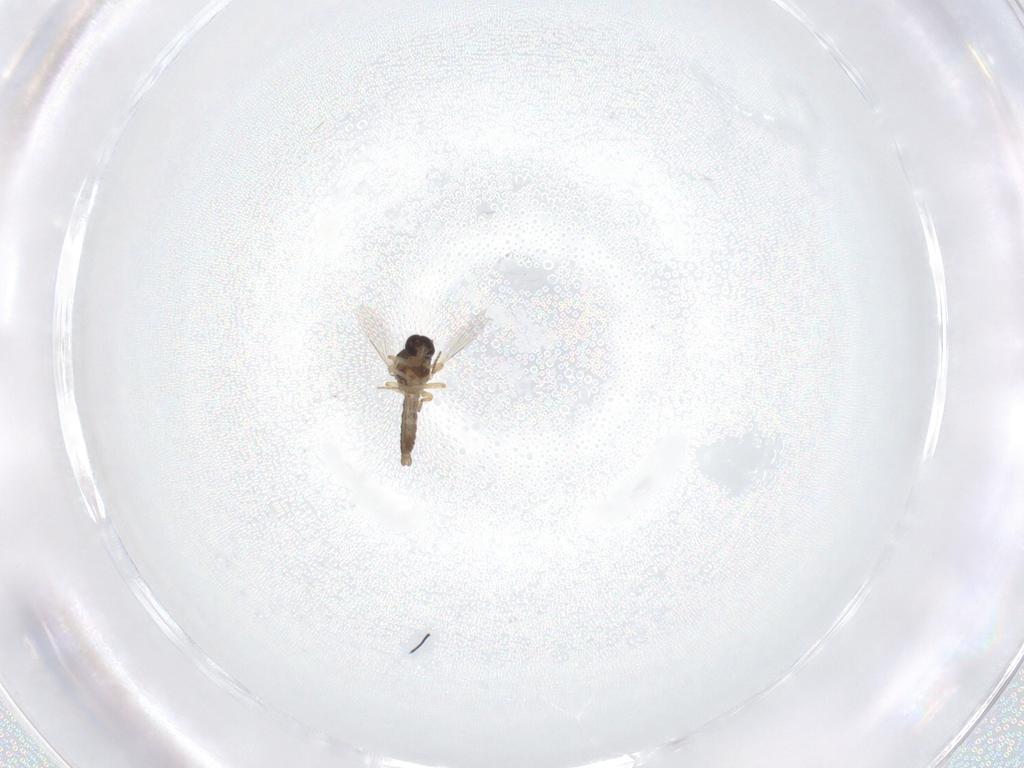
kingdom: Animalia
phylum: Arthropoda
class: Insecta
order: Diptera
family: Ceratopogonidae
